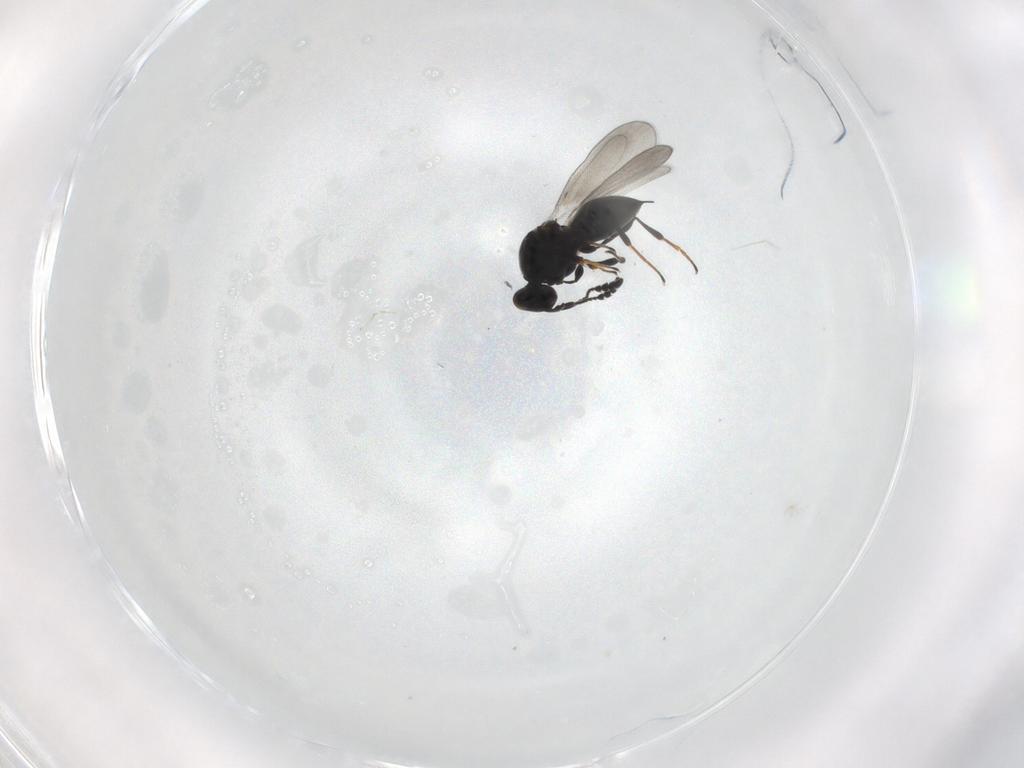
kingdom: Animalia
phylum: Arthropoda
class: Insecta
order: Hymenoptera
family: Platygastridae
